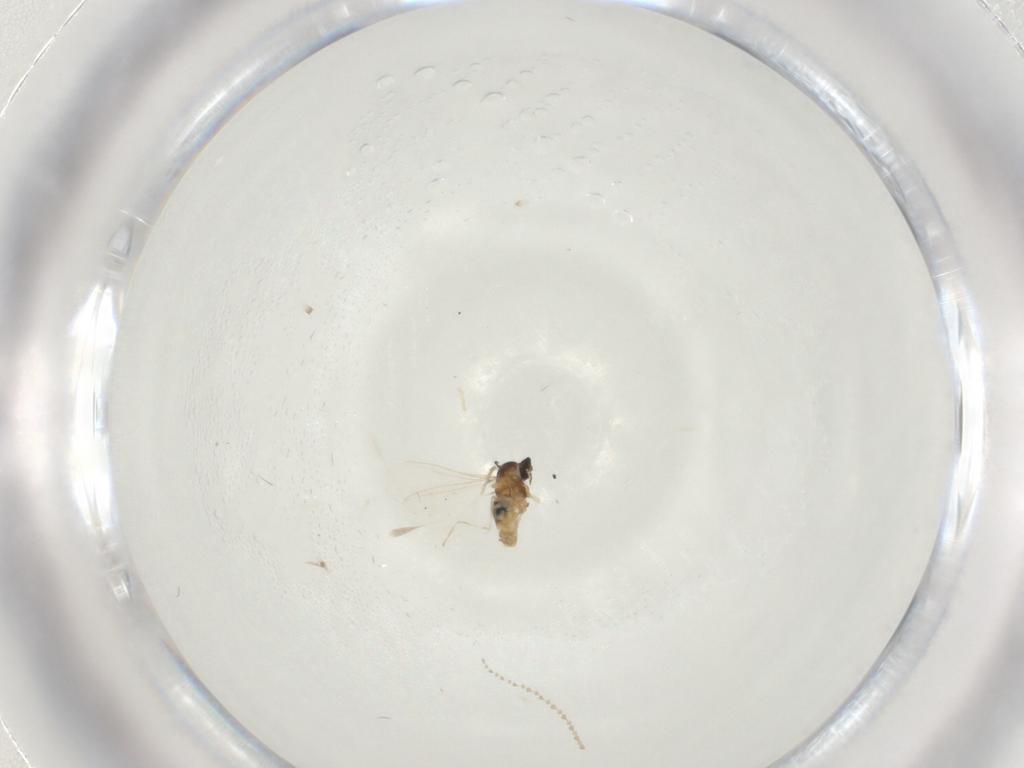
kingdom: Animalia
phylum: Arthropoda
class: Insecta
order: Diptera
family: Cecidomyiidae
